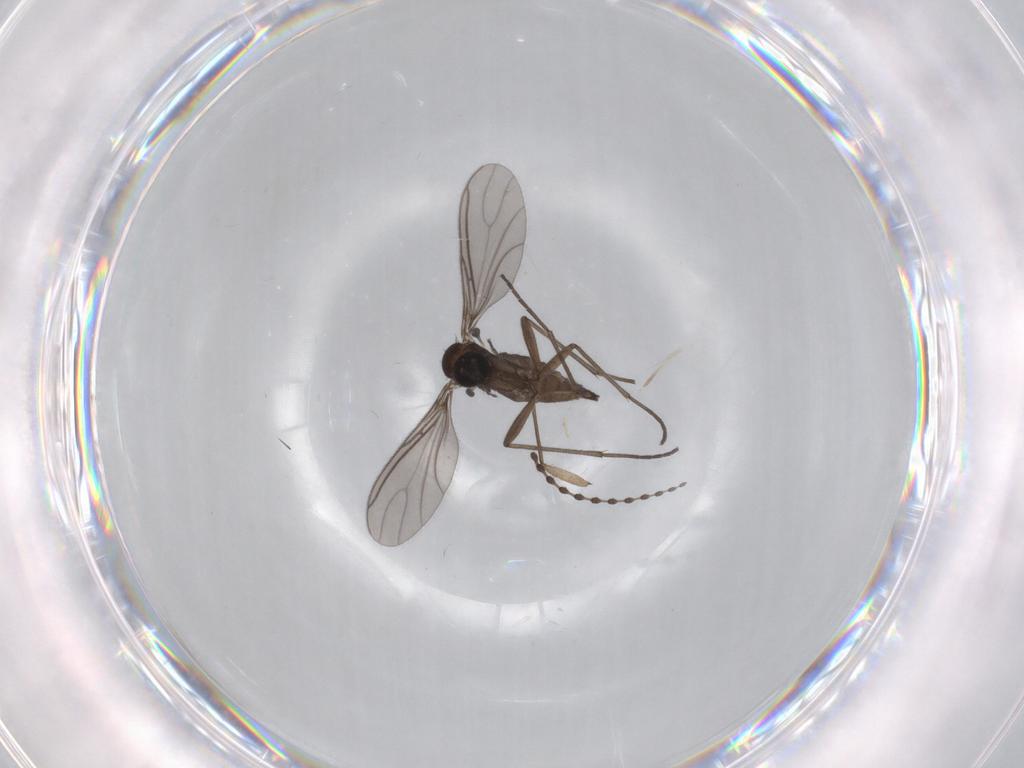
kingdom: Animalia
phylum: Arthropoda
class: Insecta
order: Diptera
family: Sciaridae
